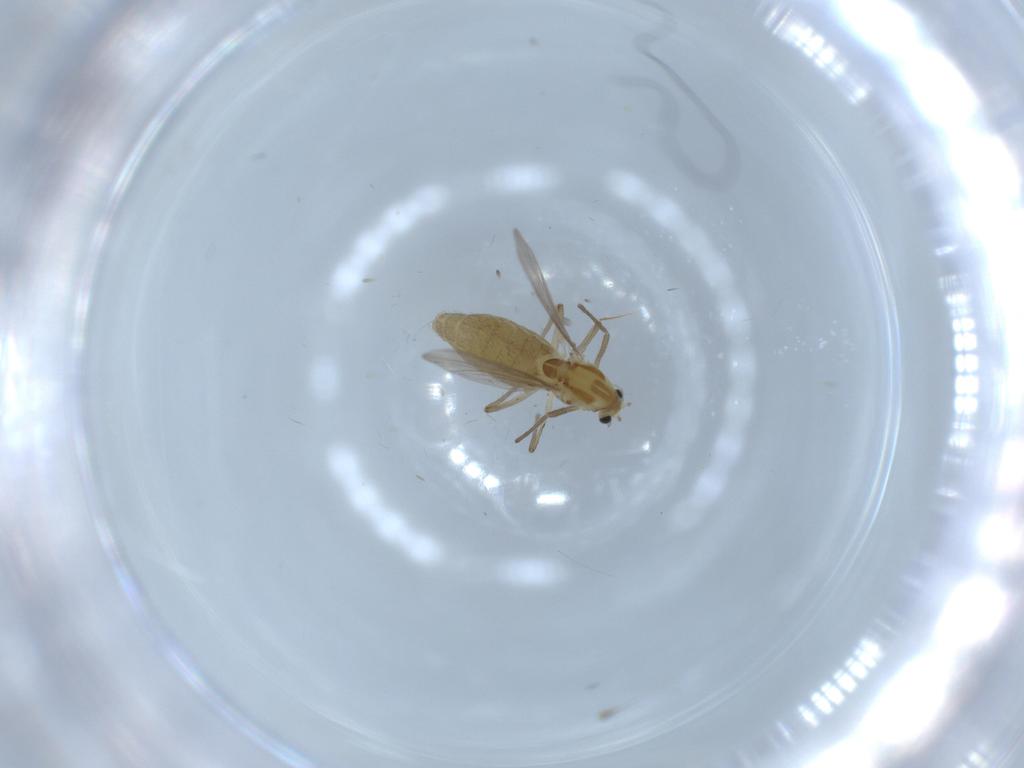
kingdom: Animalia
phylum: Arthropoda
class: Insecta
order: Diptera
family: Chironomidae
